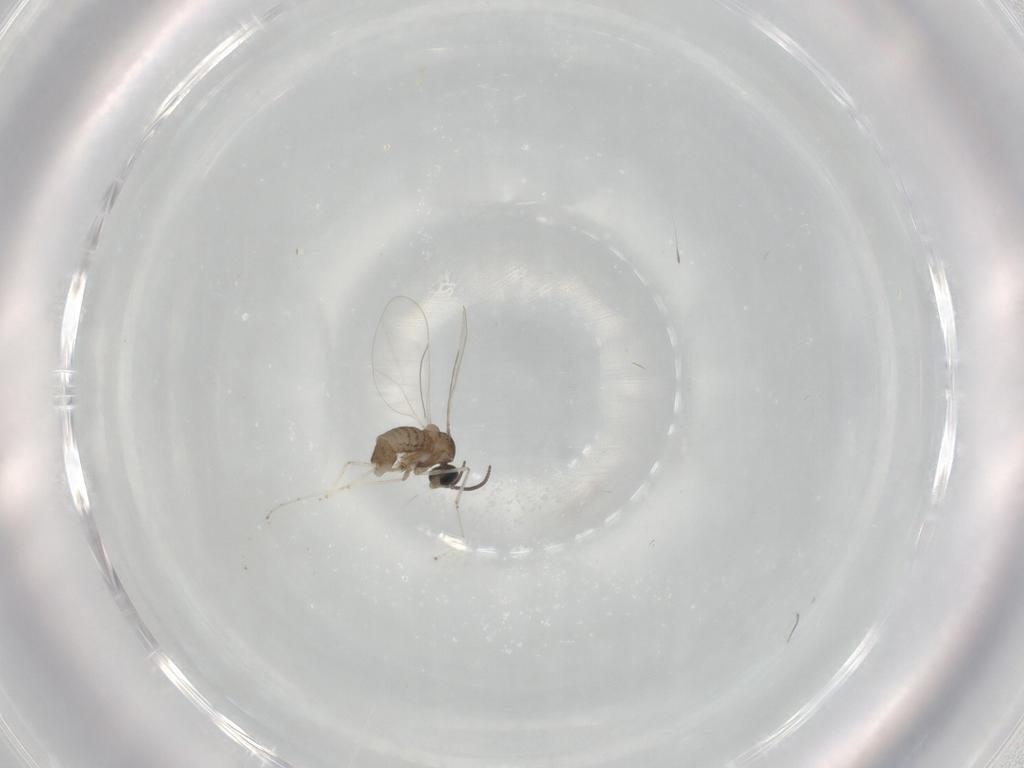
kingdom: Animalia
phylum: Arthropoda
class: Insecta
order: Diptera
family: Cecidomyiidae
